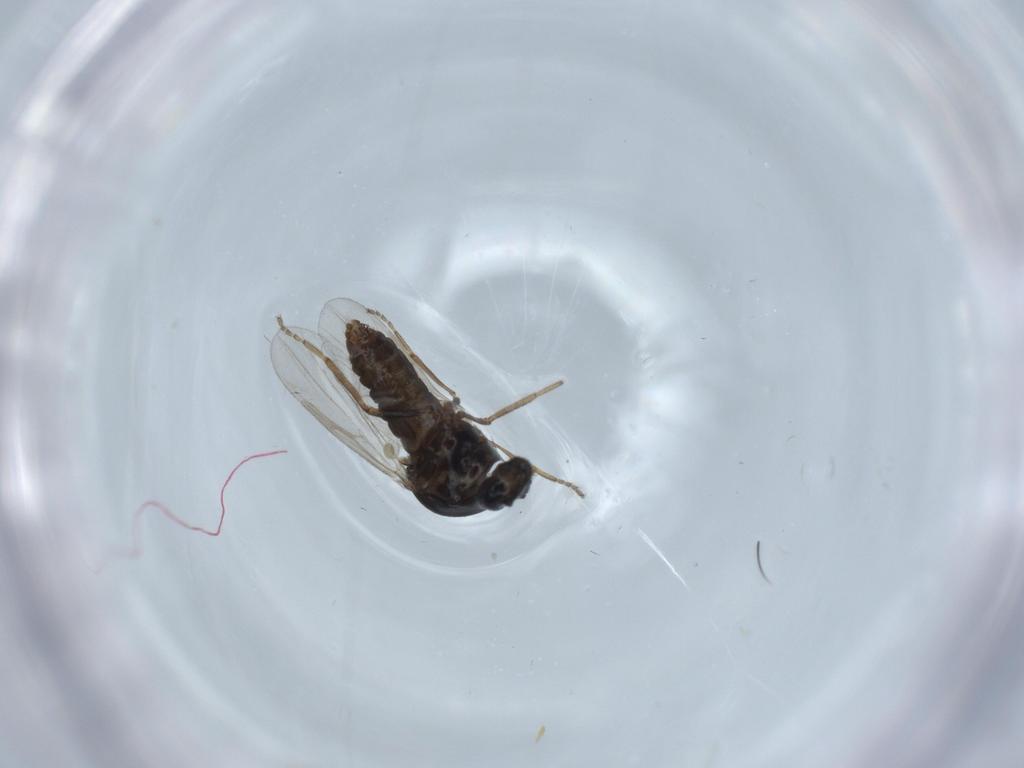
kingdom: Animalia
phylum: Arthropoda
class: Insecta
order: Diptera
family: Ceratopogonidae
